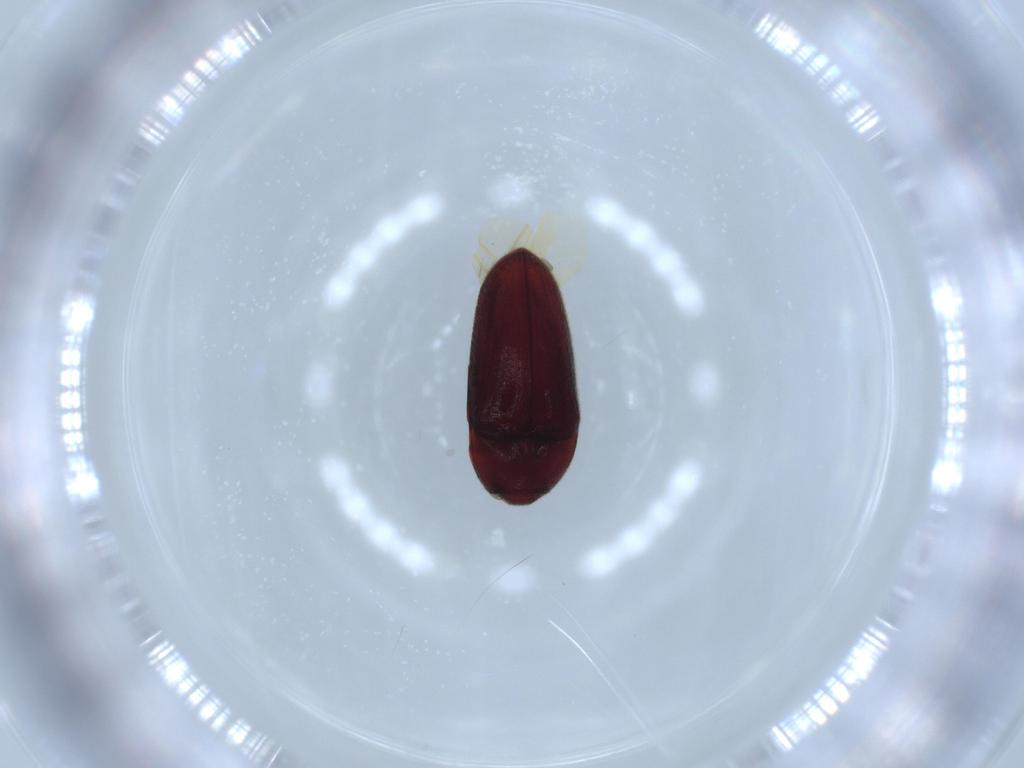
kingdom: Animalia
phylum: Arthropoda
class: Insecta
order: Coleoptera
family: Throscidae
